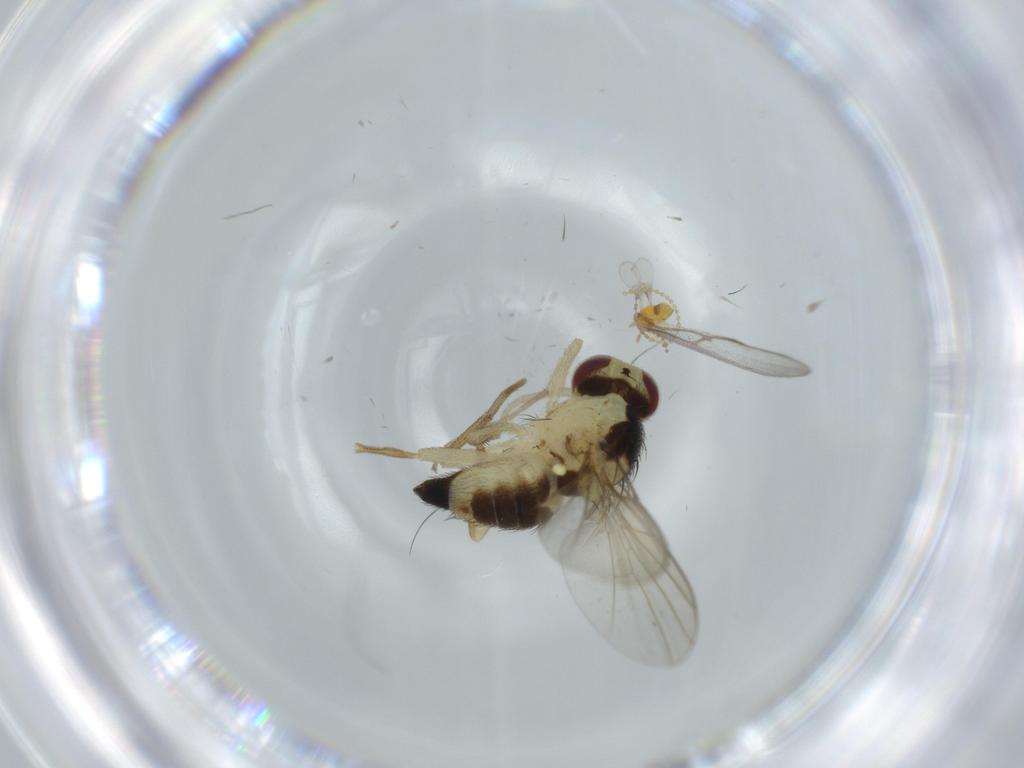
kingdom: Animalia
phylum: Arthropoda
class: Insecta
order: Diptera
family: Agromyzidae
